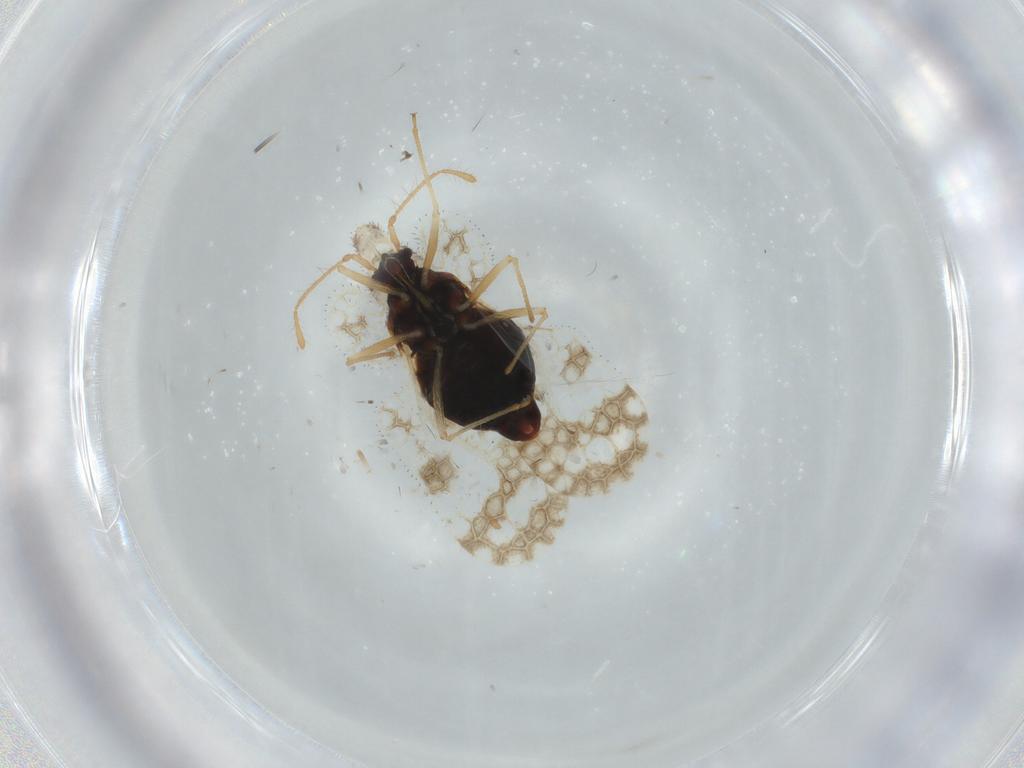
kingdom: Animalia
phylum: Arthropoda
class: Insecta
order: Hemiptera
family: Tingidae
